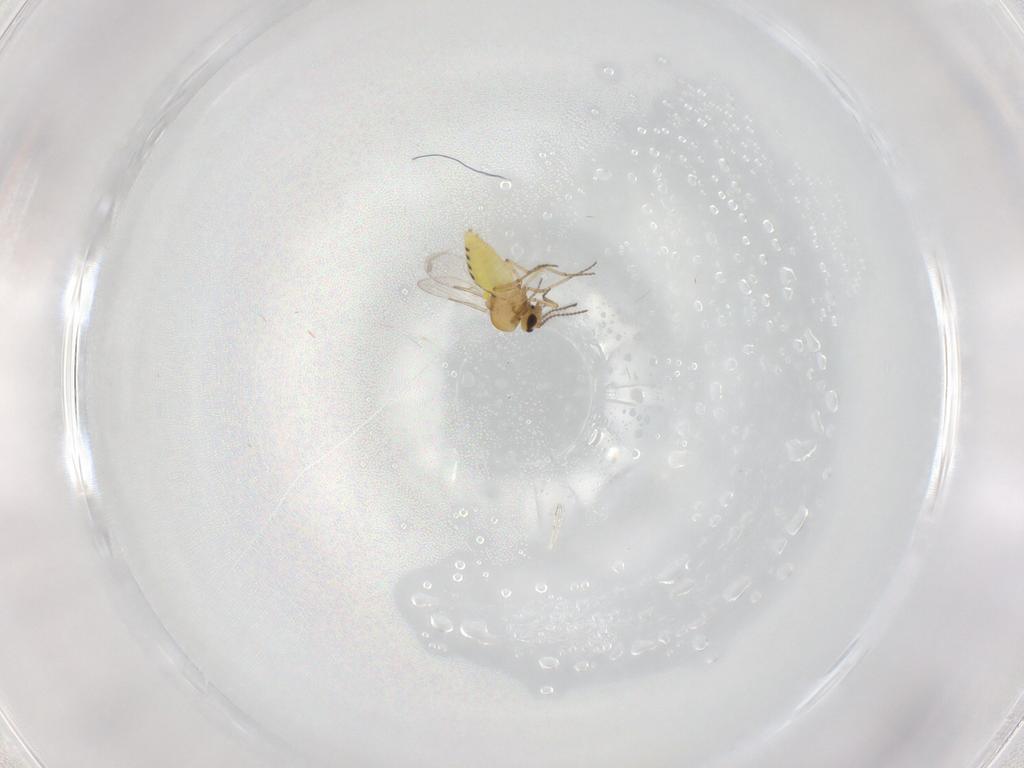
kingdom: Animalia
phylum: Arthropoda
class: Insecta
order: Diptera
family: Ceratopogonidae
